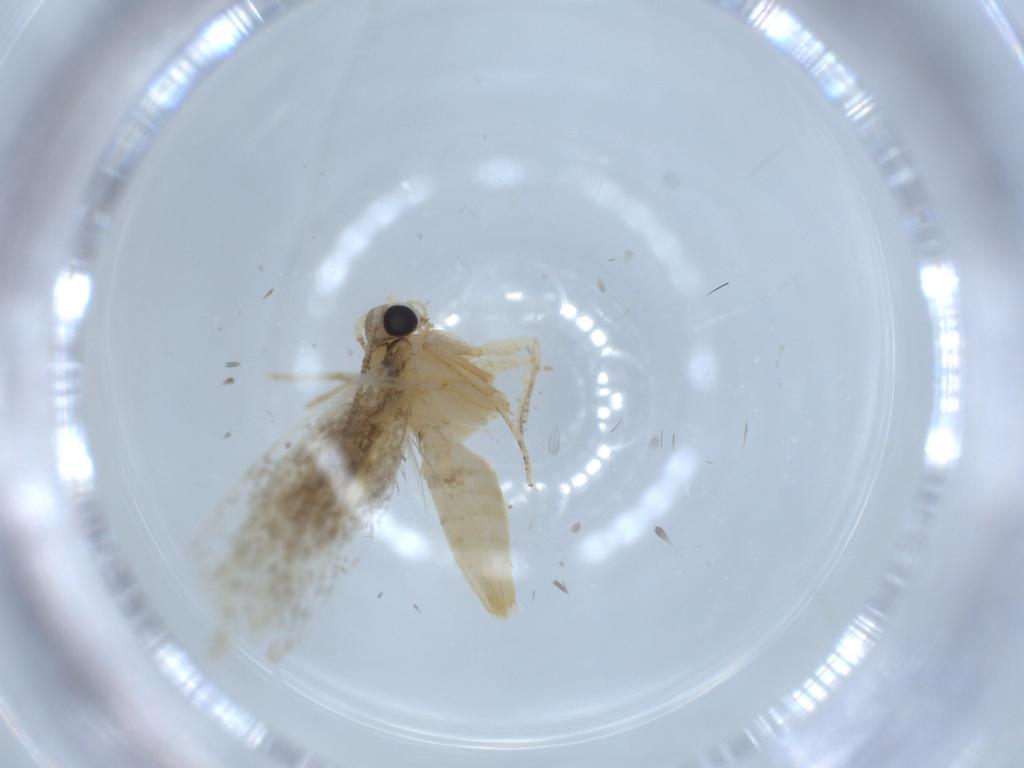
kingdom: Animalia
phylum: Arthropoda
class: Insecta
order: Lepidoptera
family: Tineidae
